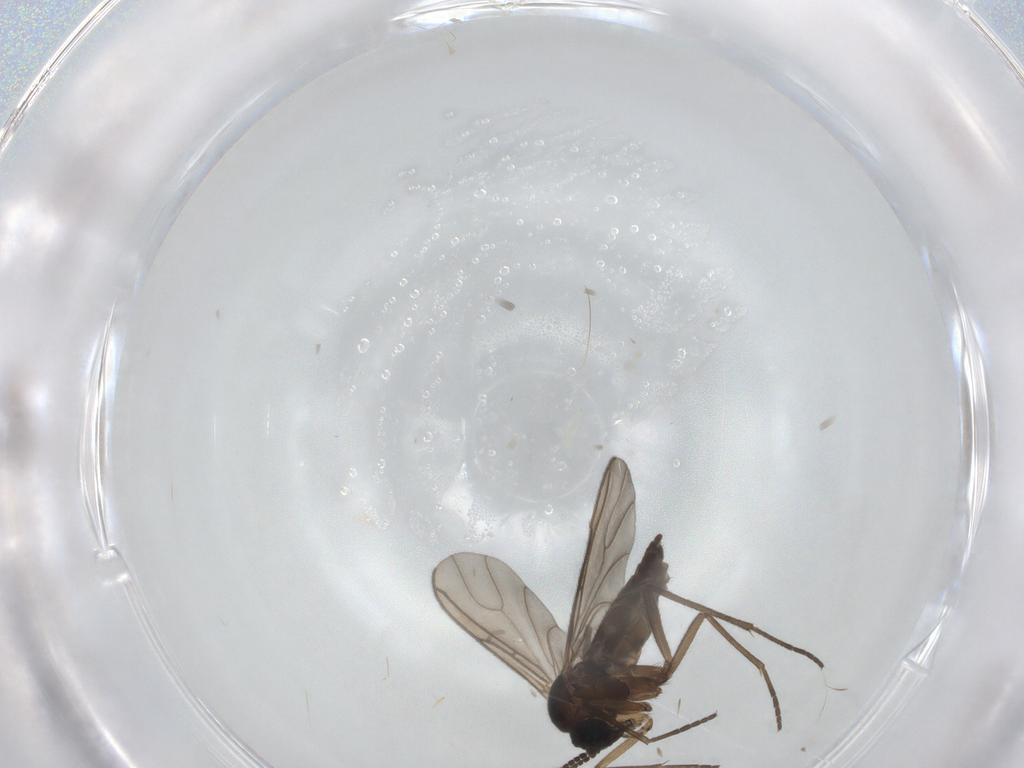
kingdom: Animalia
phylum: Arthropoda
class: Insecta
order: Diptera
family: Sciaridae
